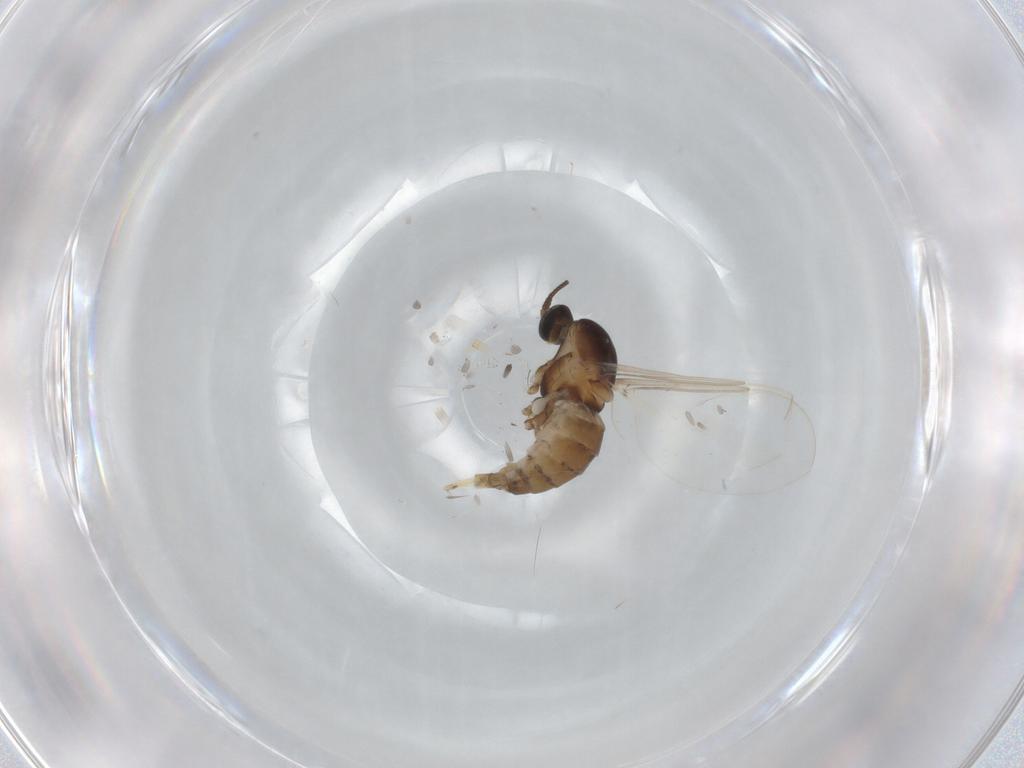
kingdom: Animalia
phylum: Arthropoda
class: Insecta
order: Diptera
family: Cecidomyiidae
